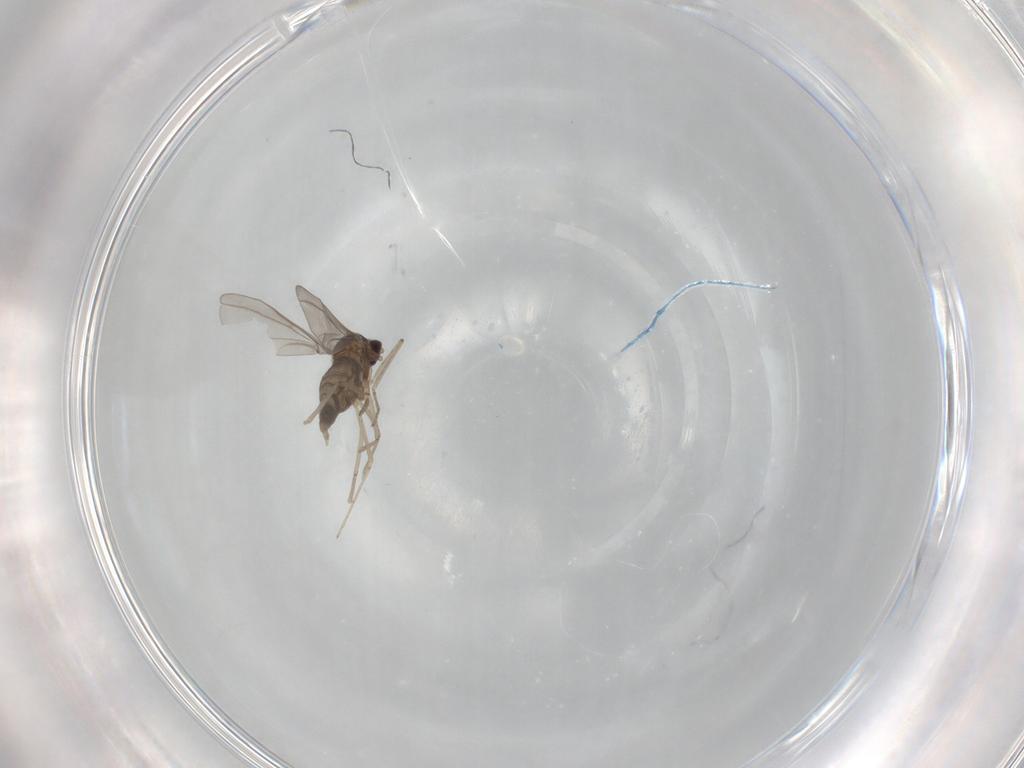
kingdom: Animalia
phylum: Arthropoda
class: Insecta
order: Diptera
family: Cecidomyiidae
